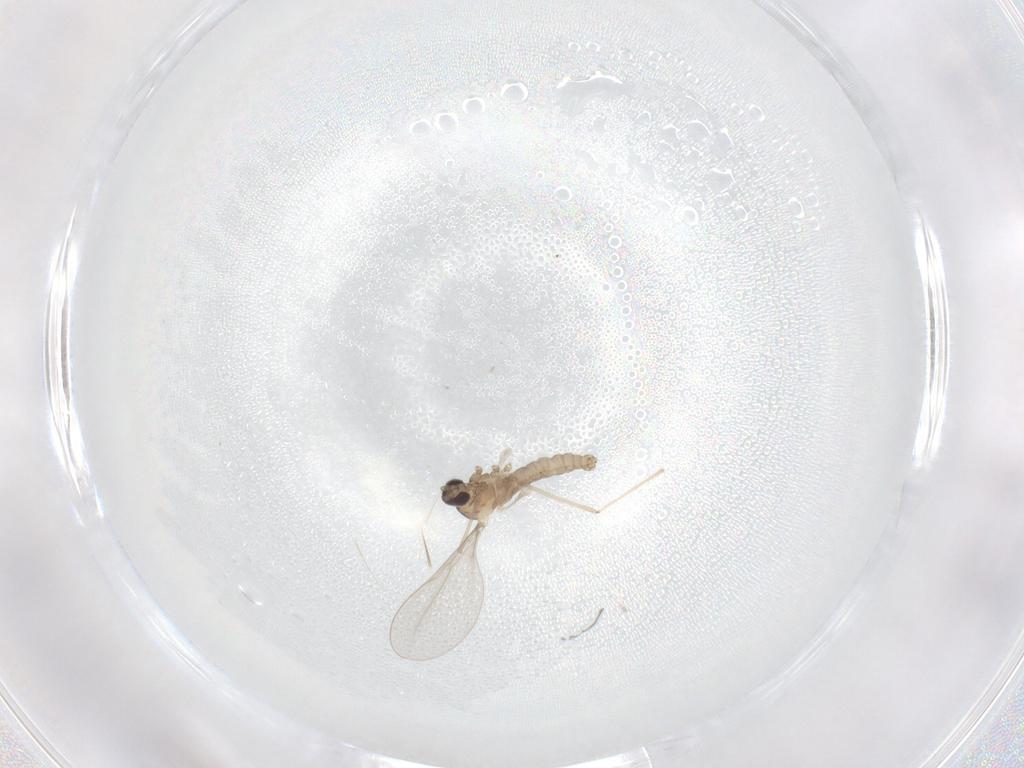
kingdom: Animalia
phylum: Arthropoda
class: Insecta
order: Diptera
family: Cecidomyiidae
